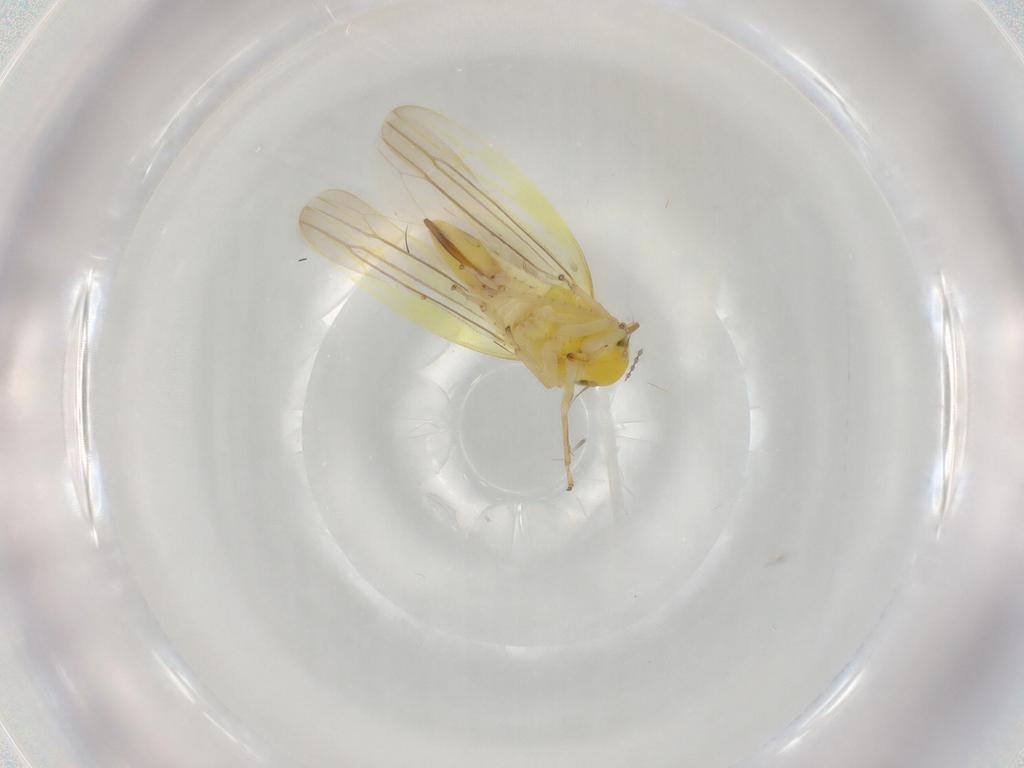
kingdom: Animalia
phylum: Arthropoda
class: Insecta
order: Hemiptera
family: Cicadellidae
